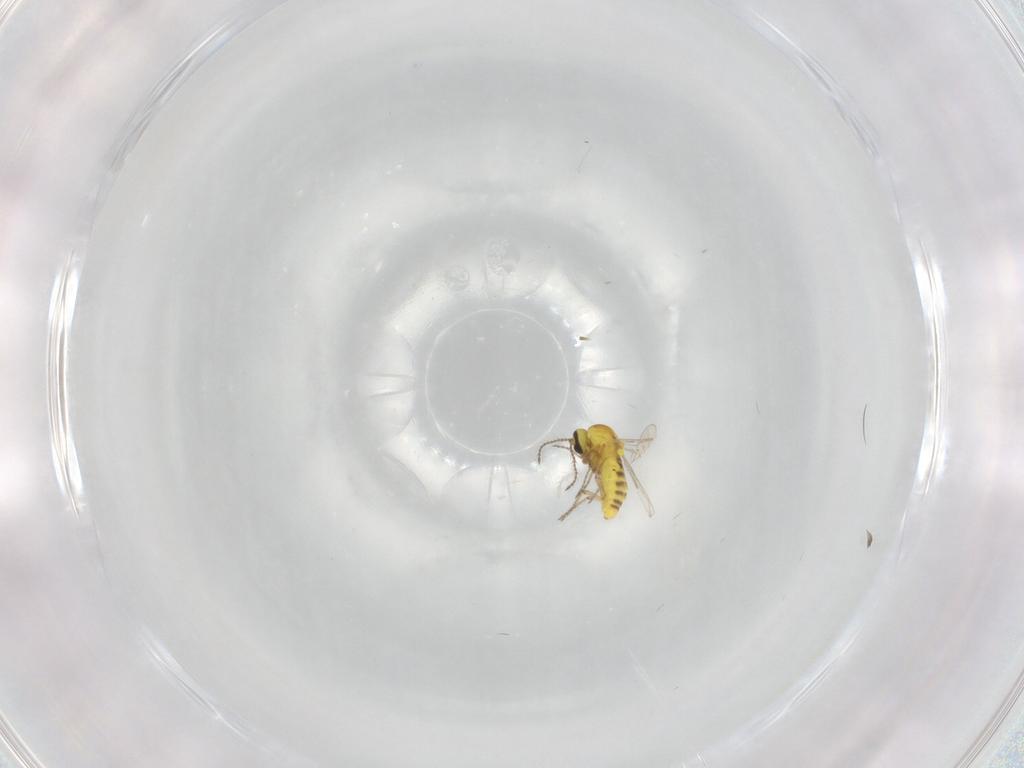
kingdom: Animalia
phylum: Arthropoda
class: Insecta
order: Diptera
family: Ceratopogonidae
